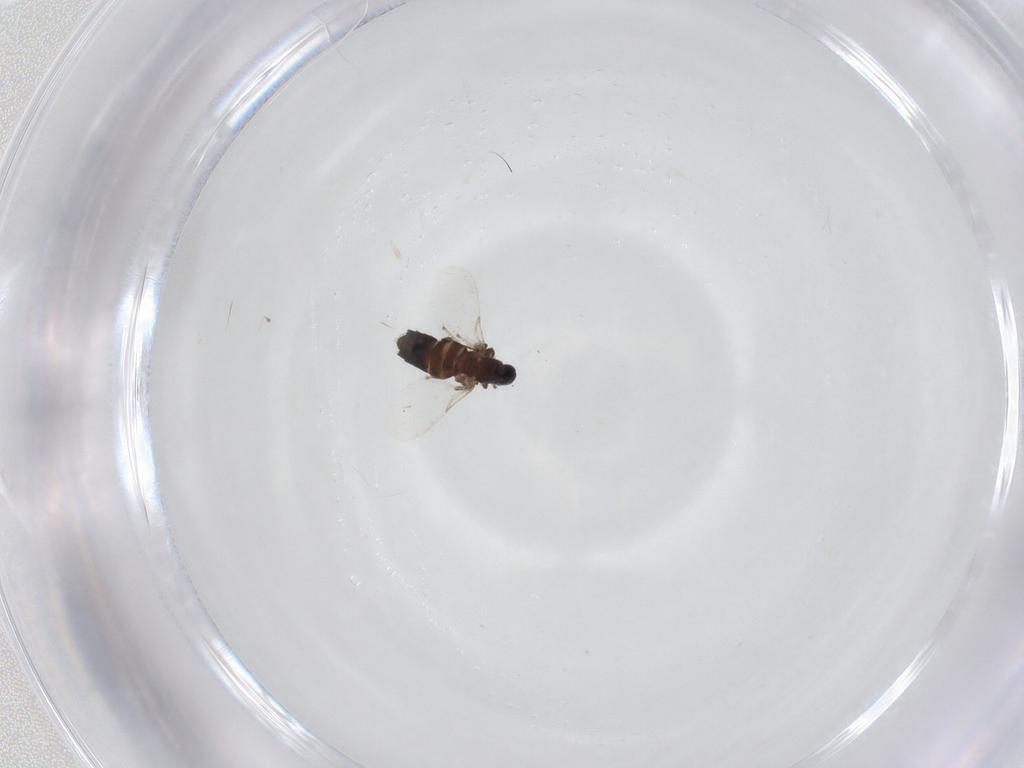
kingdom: Animalia
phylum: Arthropoda
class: Insecta
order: Diptera
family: Scatopsidae
